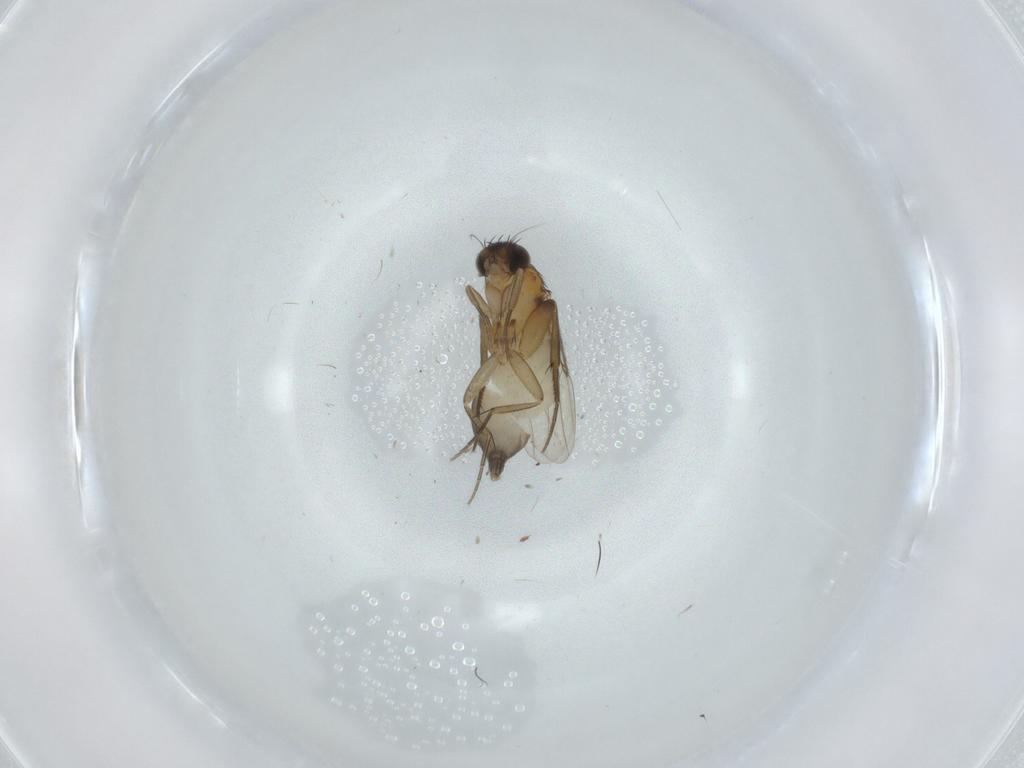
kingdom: Animalia
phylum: Arthropoda
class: Insecta
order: Diptera
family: Phoridae
